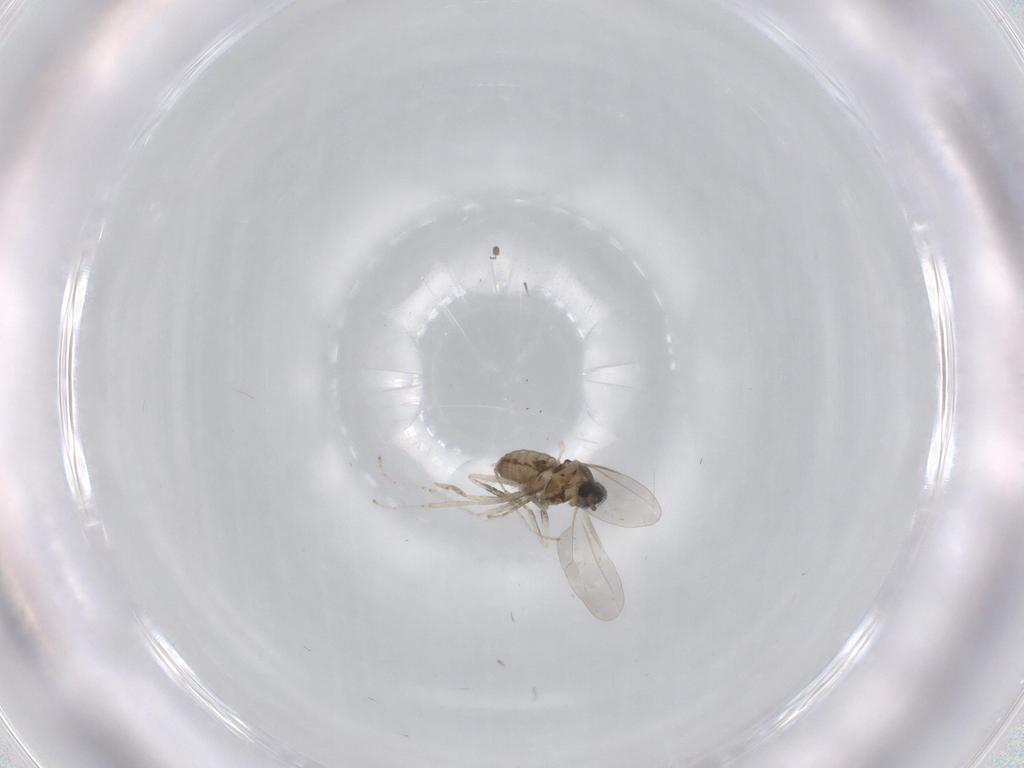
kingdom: Animalia
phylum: Arthropoda
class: Insecta
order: Diptera
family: Cecidomyiidae
